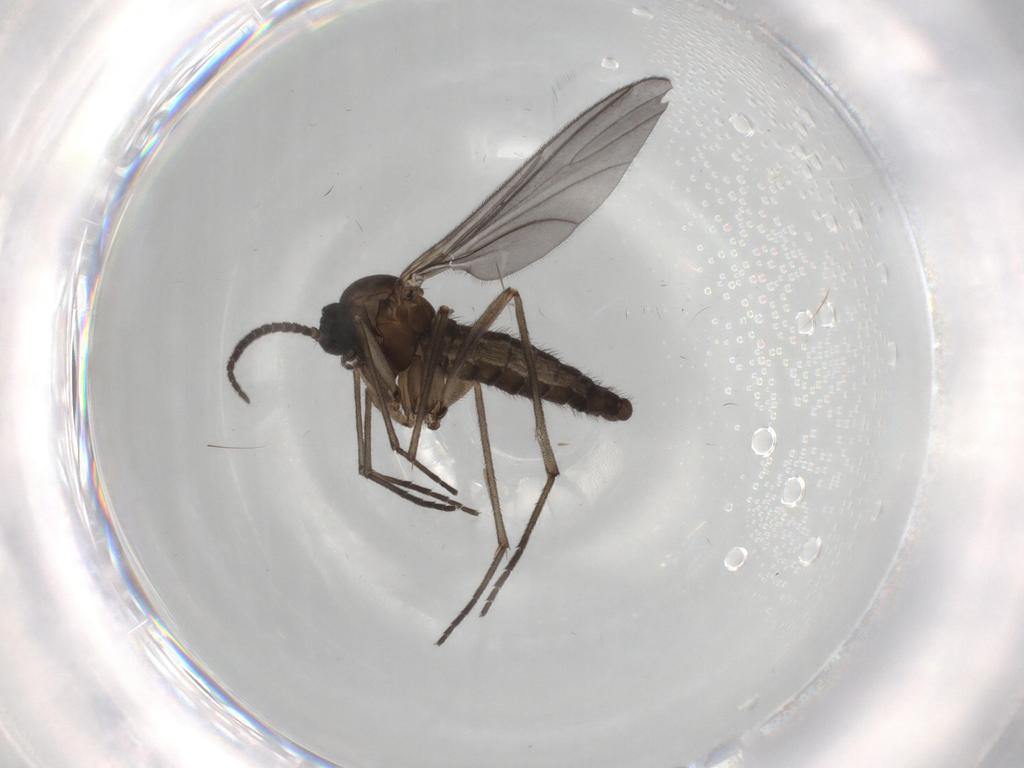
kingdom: Animalia
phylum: Arthropoda
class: Insecta
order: Diptera
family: Sciaridae
